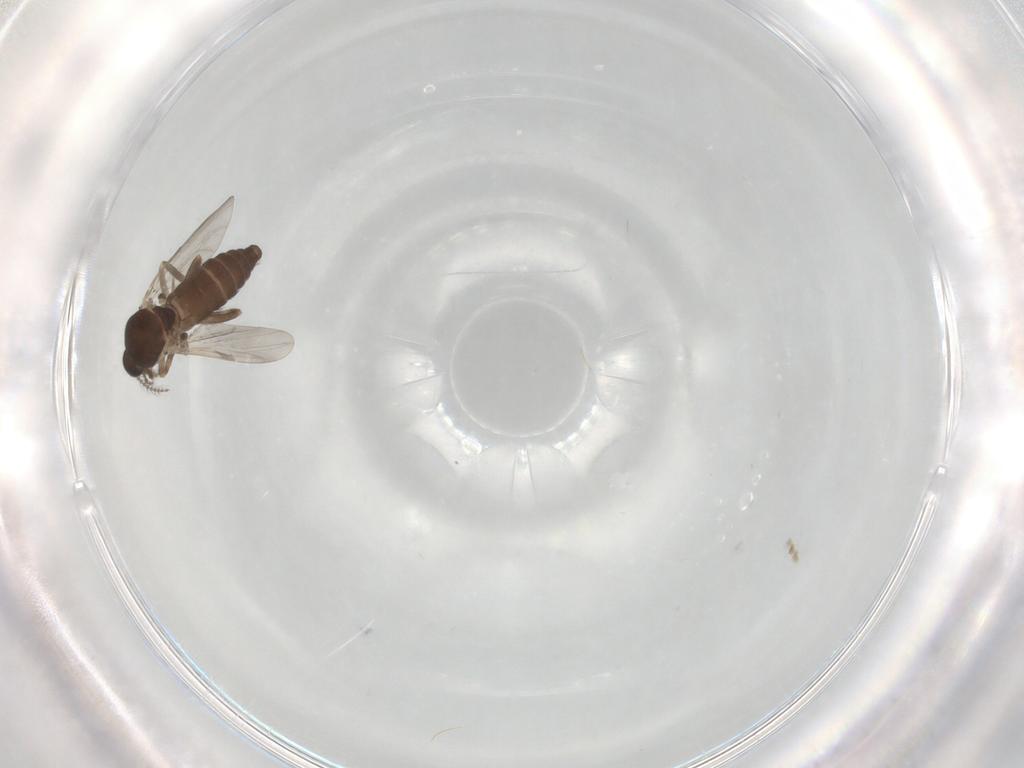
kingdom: Animalia
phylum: Arthropoda
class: Insecta
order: Diptera
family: Ceratopogonidae
